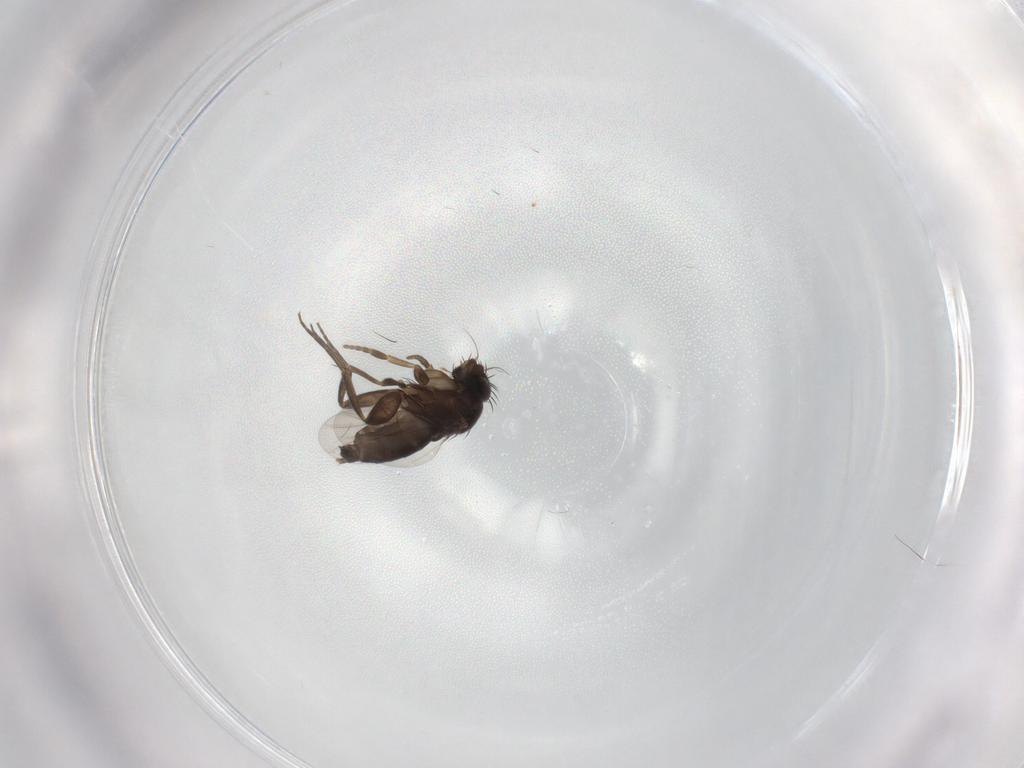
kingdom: Animalia
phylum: Arthropoda
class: Insecta
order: Diptera
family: Phoridae
